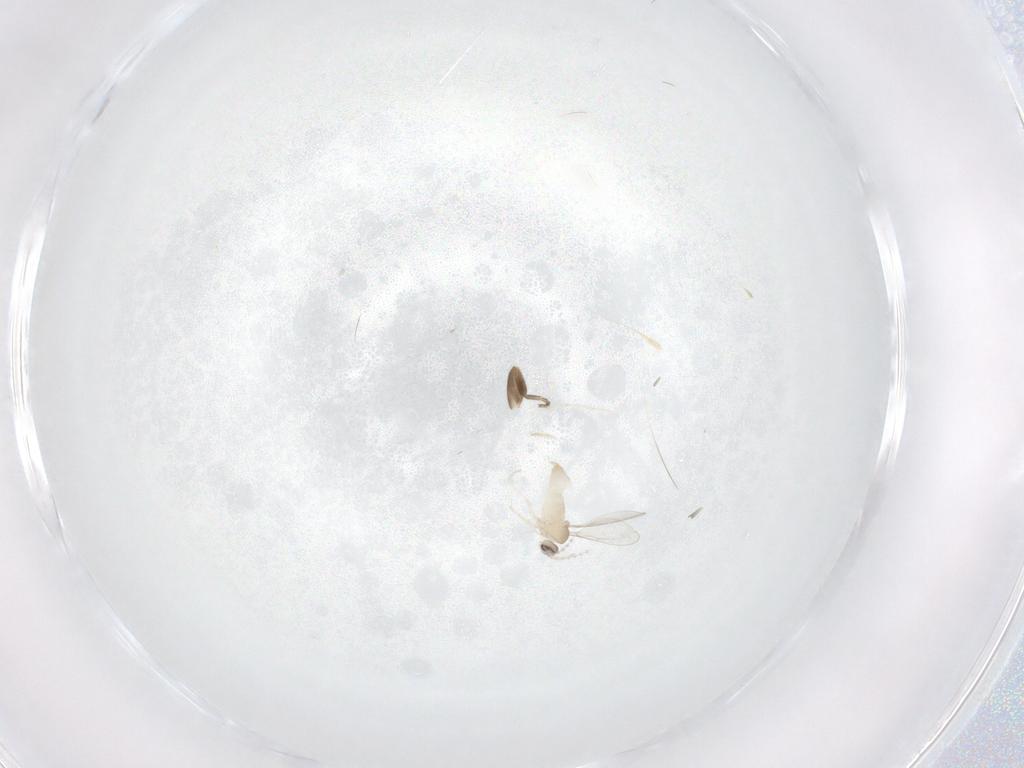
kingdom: Animalia
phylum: Arthropoda
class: Insecta
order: Diptera
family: Phoridae
